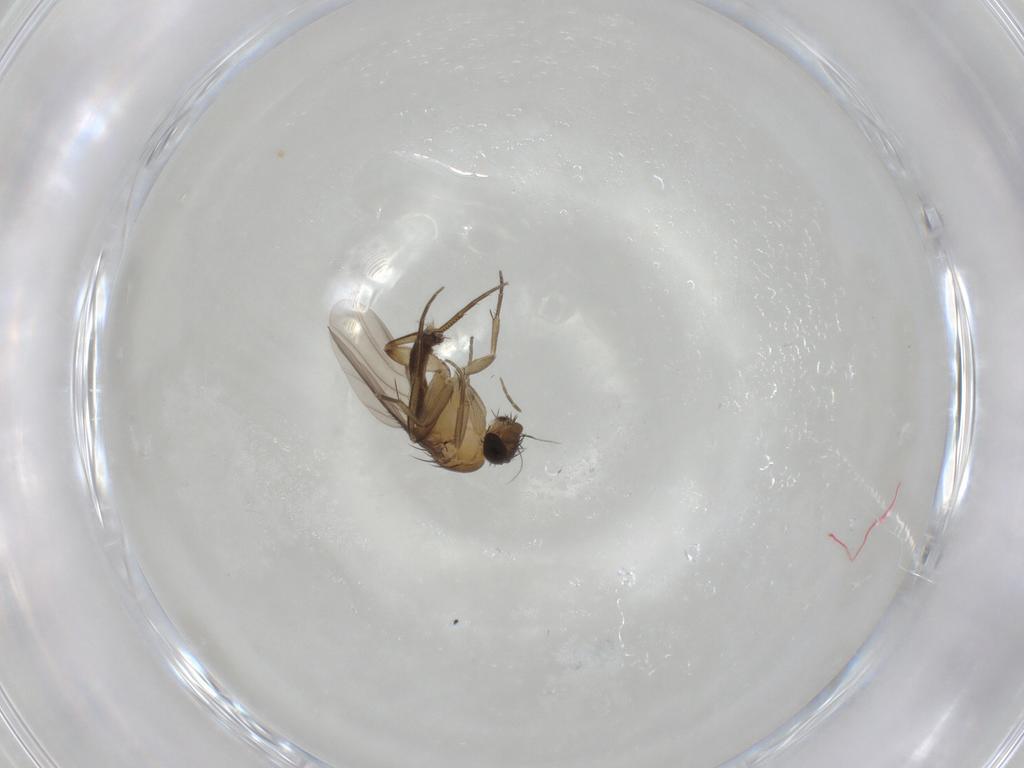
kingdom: Animalia
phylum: Arthropoda
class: Insecta
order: Diptera
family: Phoridae
